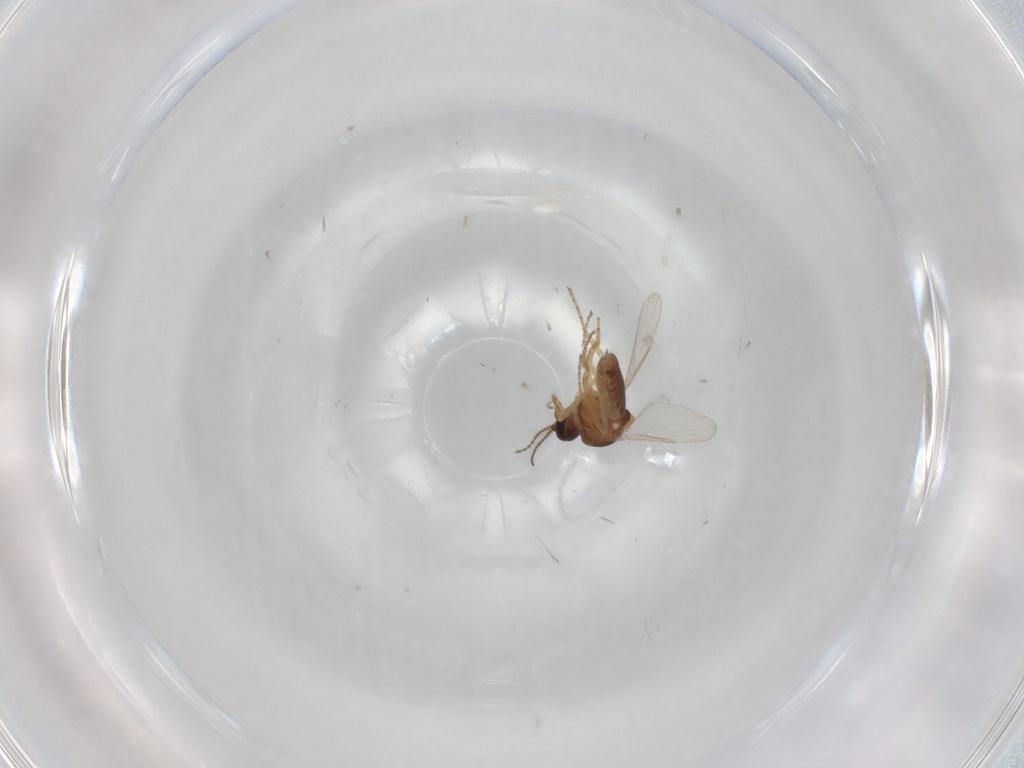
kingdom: Animalia
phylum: Arthropoda
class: Insecta
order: Diptera
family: Ceratopogonidae
